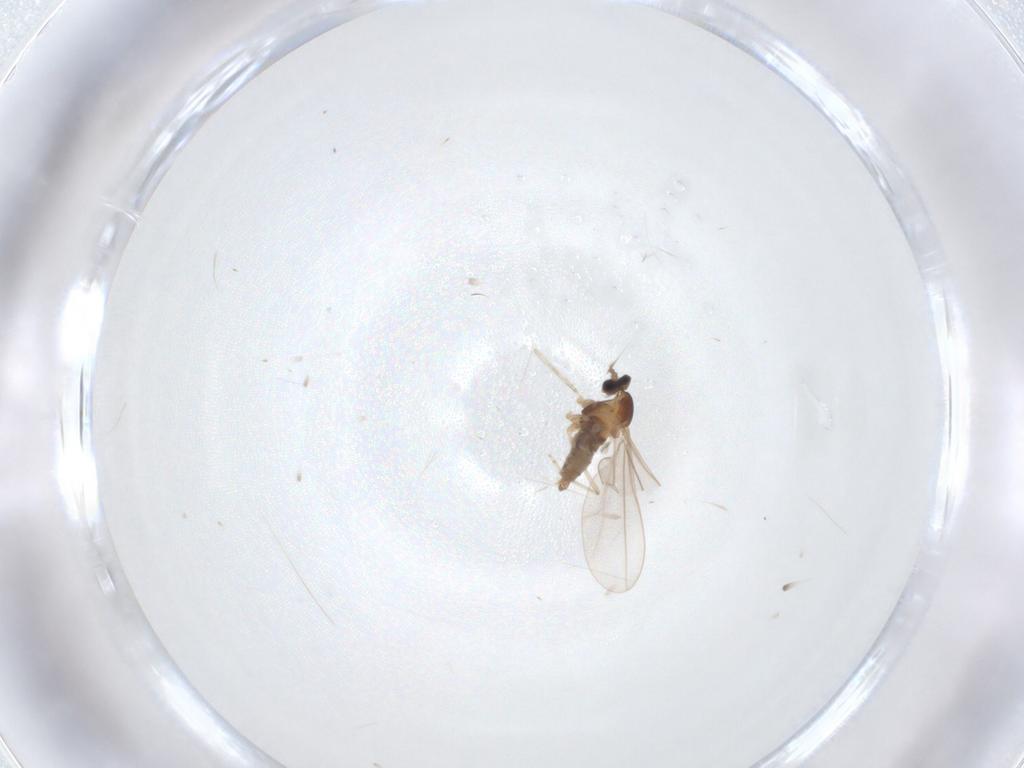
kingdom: Animalia
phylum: Arthropoda
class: Insecta
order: Diptera
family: Cecidomyiidae
